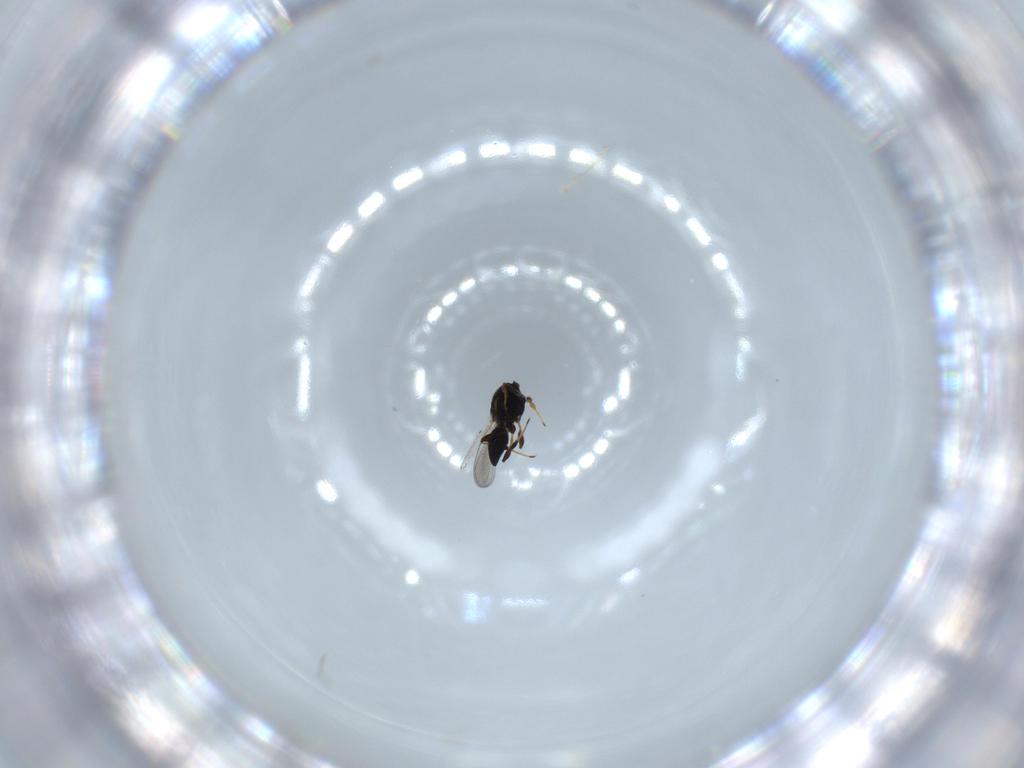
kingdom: Animalia
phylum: Arthropoda
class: Insecta
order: Hymenoptera
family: Platygastridae
